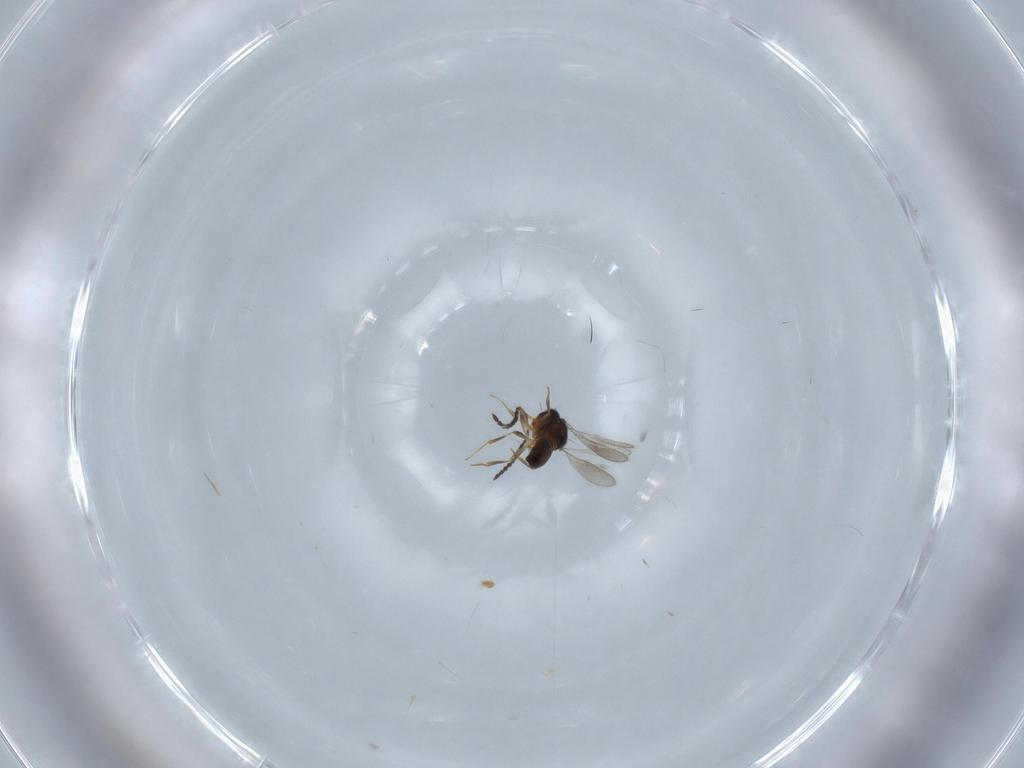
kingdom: Animalia
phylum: Arthropoda
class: Insecta
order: Hymenoptera
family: Scelionidae
